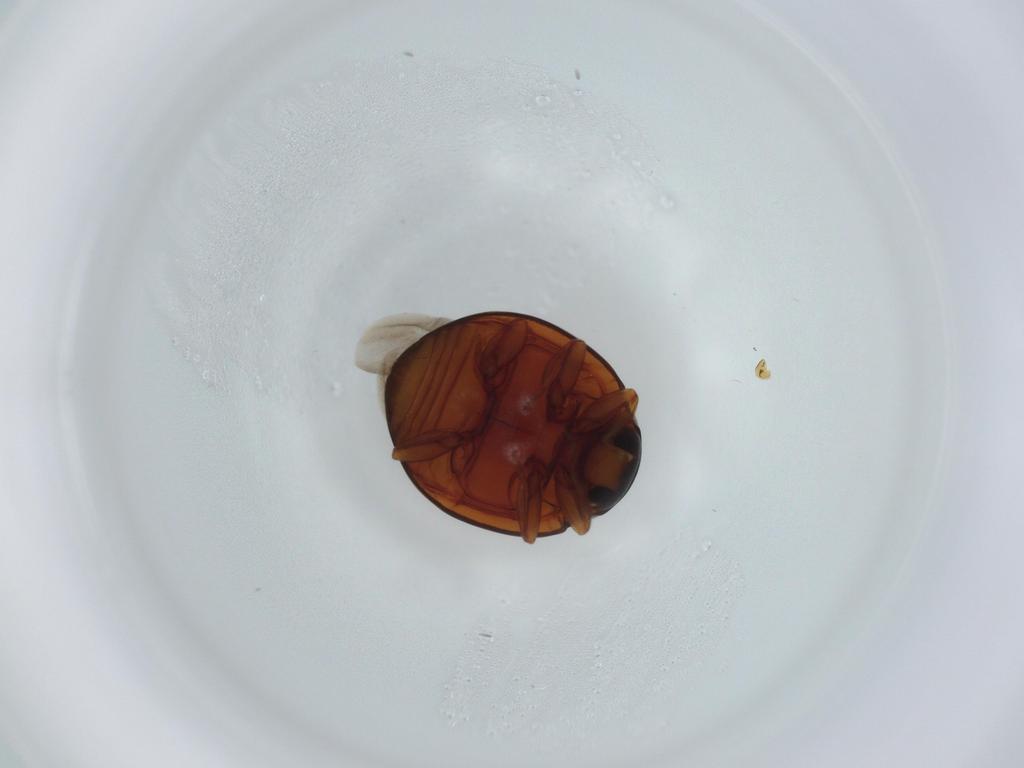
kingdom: Animalia
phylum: Arthropoda
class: Insecta
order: Coleoptera
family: Coccinellidae
